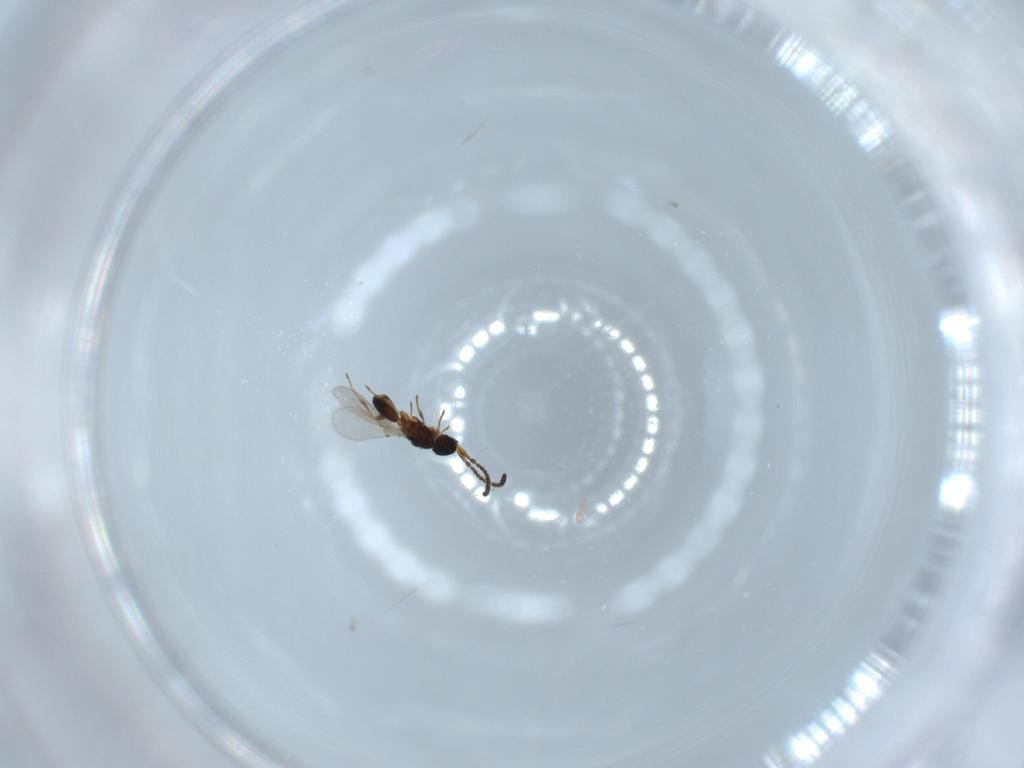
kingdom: Animalia
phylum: Arthropoda
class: Insecta
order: Hymenoptera
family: Diapriidae
